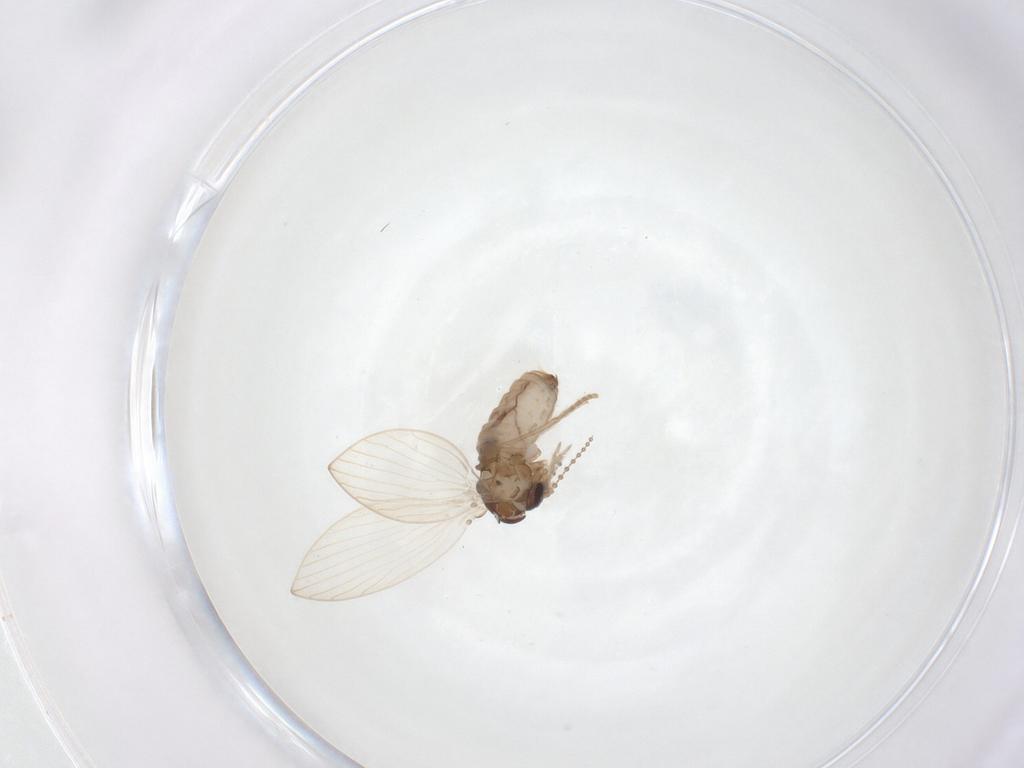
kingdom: Animalia
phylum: Arthropoda
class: Insecta
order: Diptera
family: Psychodidae
